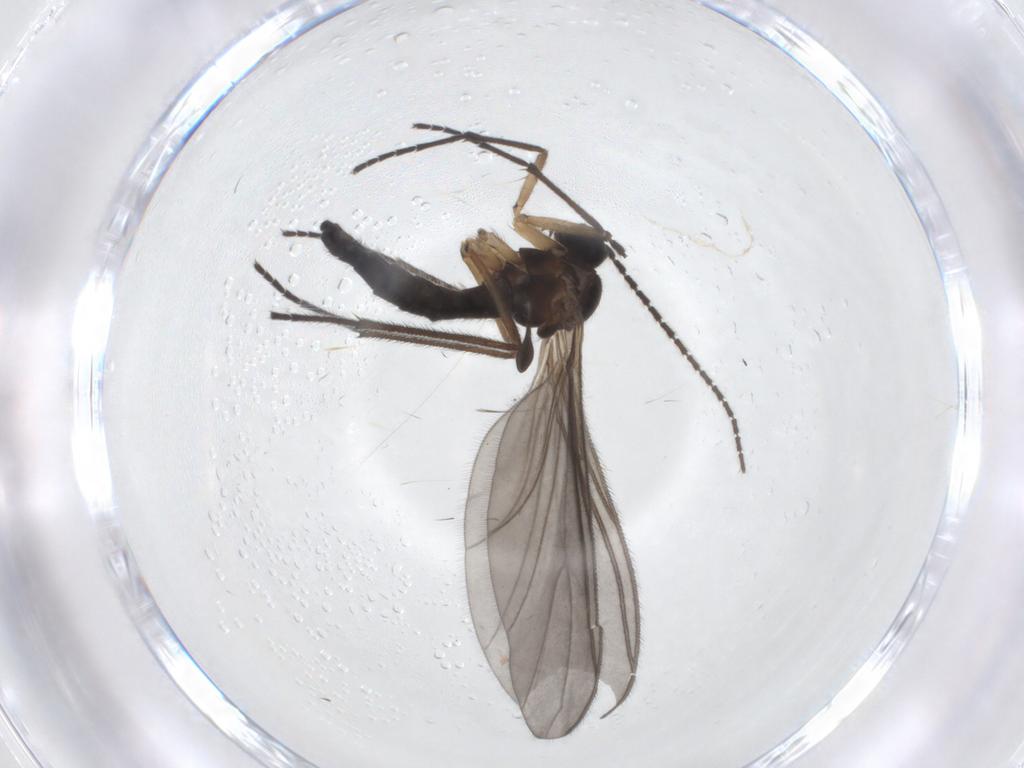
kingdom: Animalia
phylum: Arthropoda
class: Insecta
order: Diptera
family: Sciaridae
